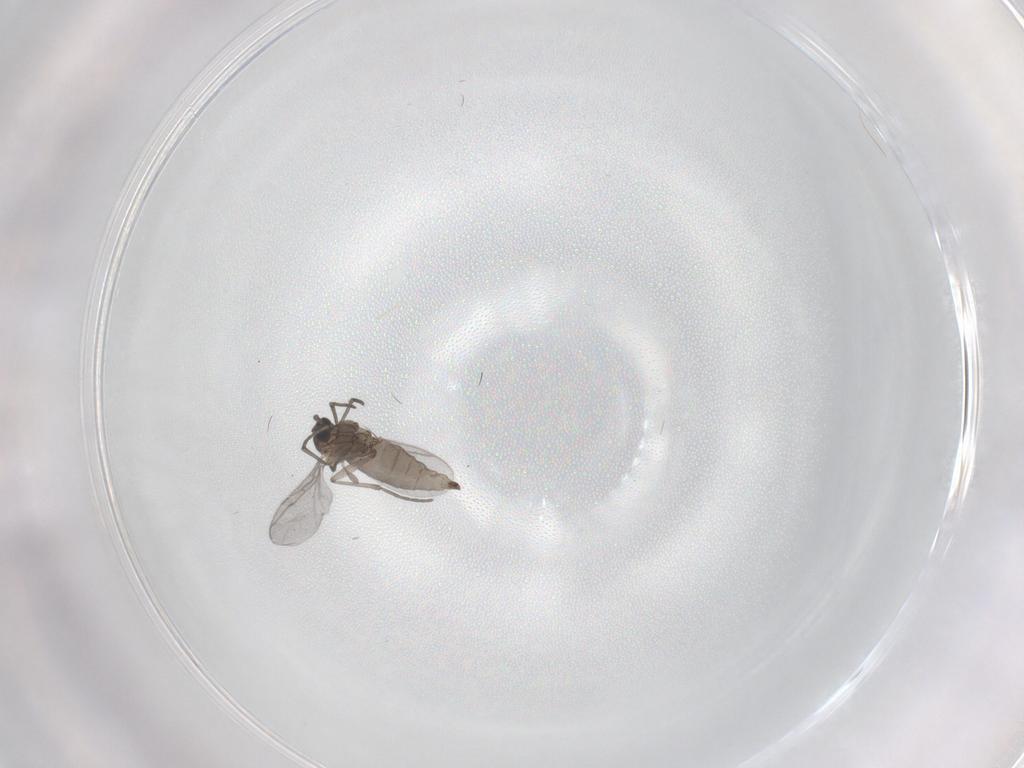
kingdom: Animalia
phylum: Arthropoda
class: Insecta
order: Diptera
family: Sciaridae
